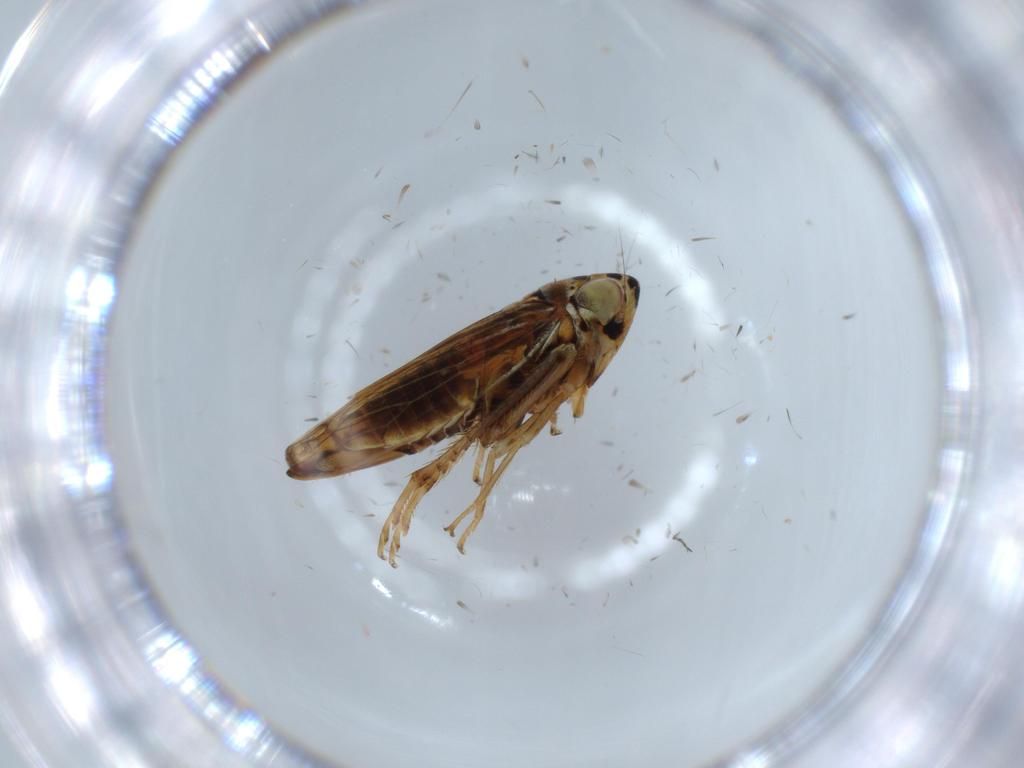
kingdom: Animalia
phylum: Arthropoda
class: Insecta
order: Hemiptera
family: Cicadellidae
